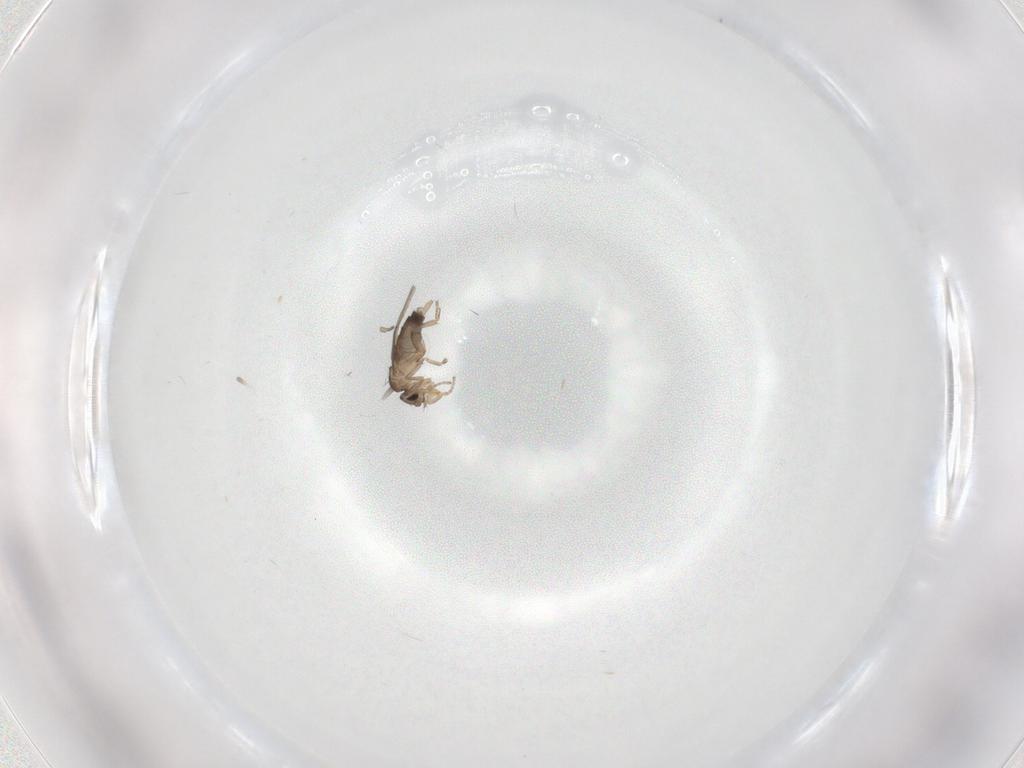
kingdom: Animalia
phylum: Arthropoda
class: Insecta
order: Diptera
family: Phoridae
